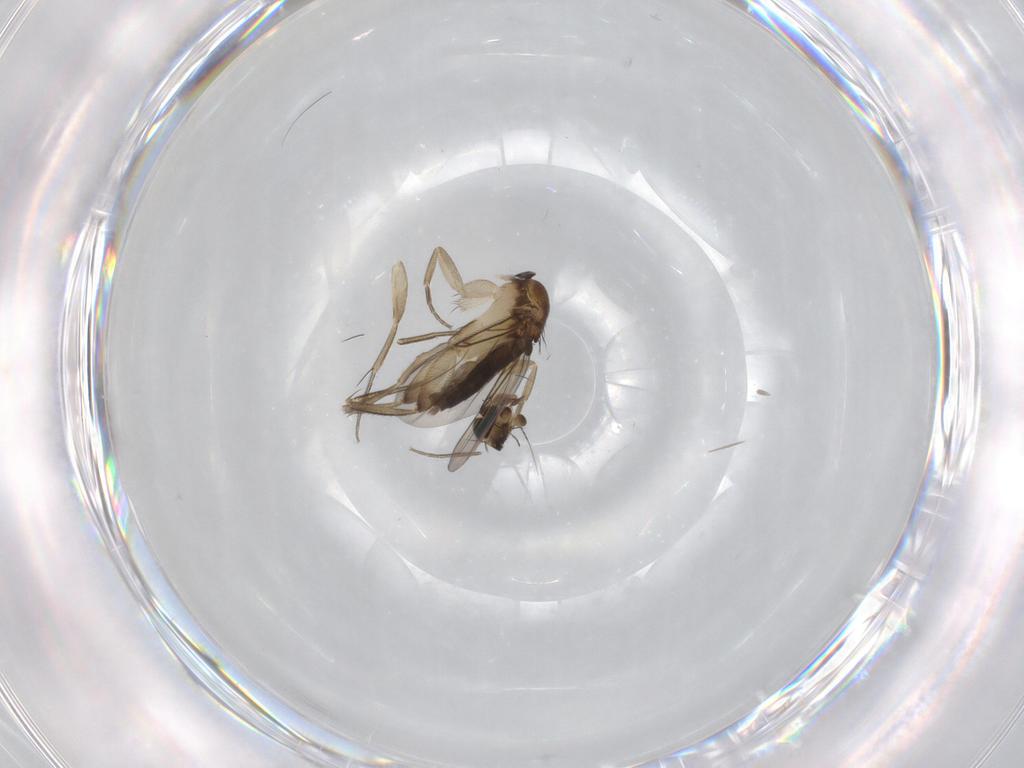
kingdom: Animalia
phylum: Arthropoda
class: Insecta
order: Diptera
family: Phoridae
